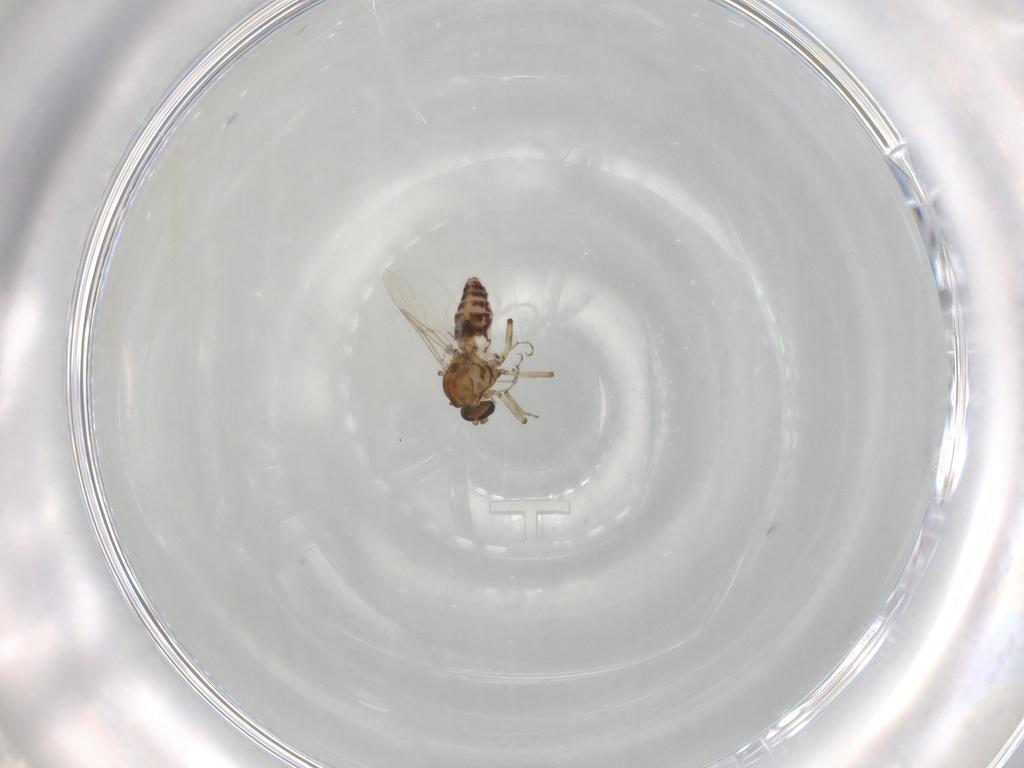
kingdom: Animalia
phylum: Arthropoda
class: Insecta
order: Diptera
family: Ceratopogonidae
